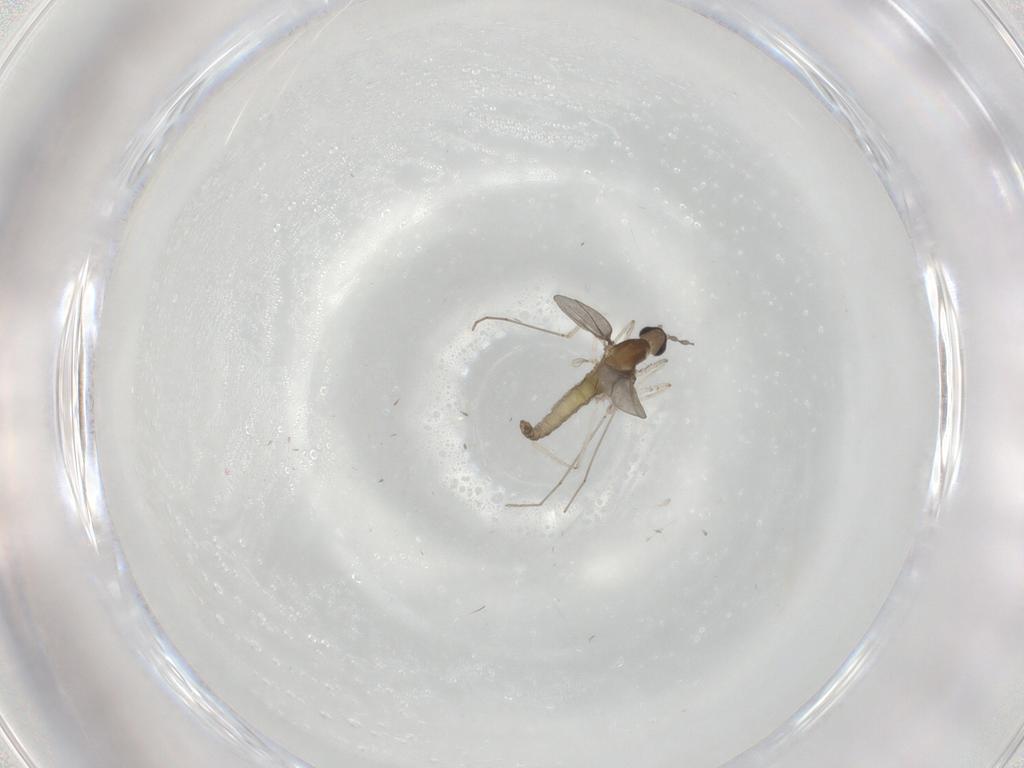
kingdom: Animalia
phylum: Arthropoda
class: Insecta
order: Diptera
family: Cecidomyiidae
